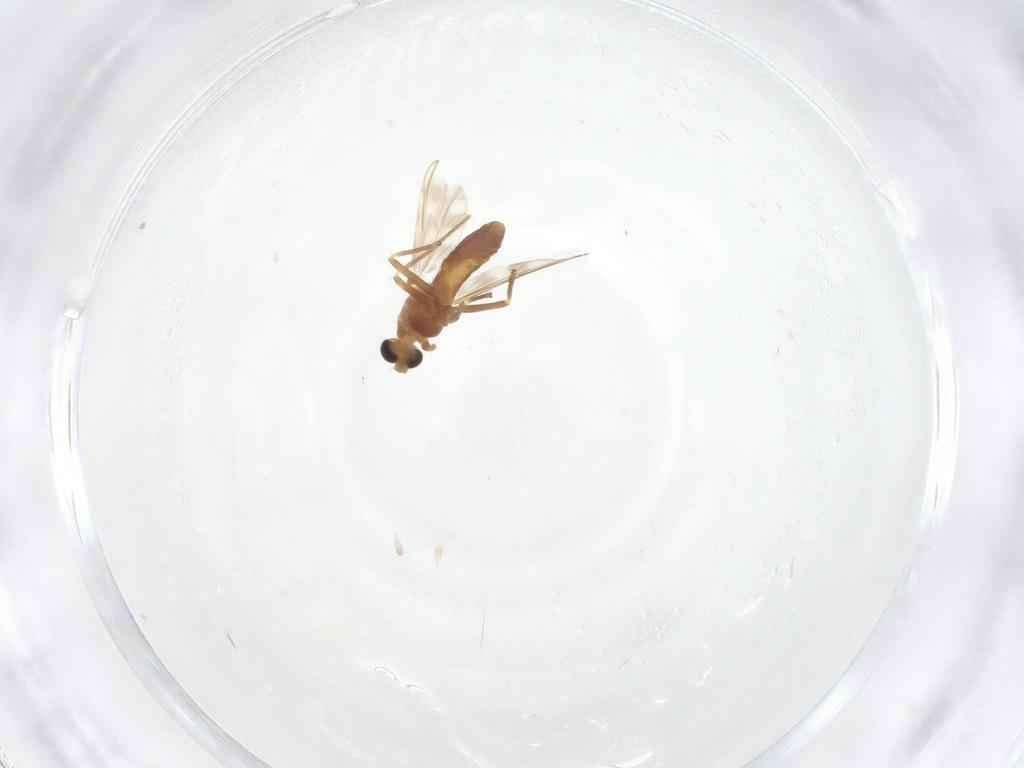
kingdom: Animalia
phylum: Arthropoda
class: Insecta
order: Diptera
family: Chironomidae
